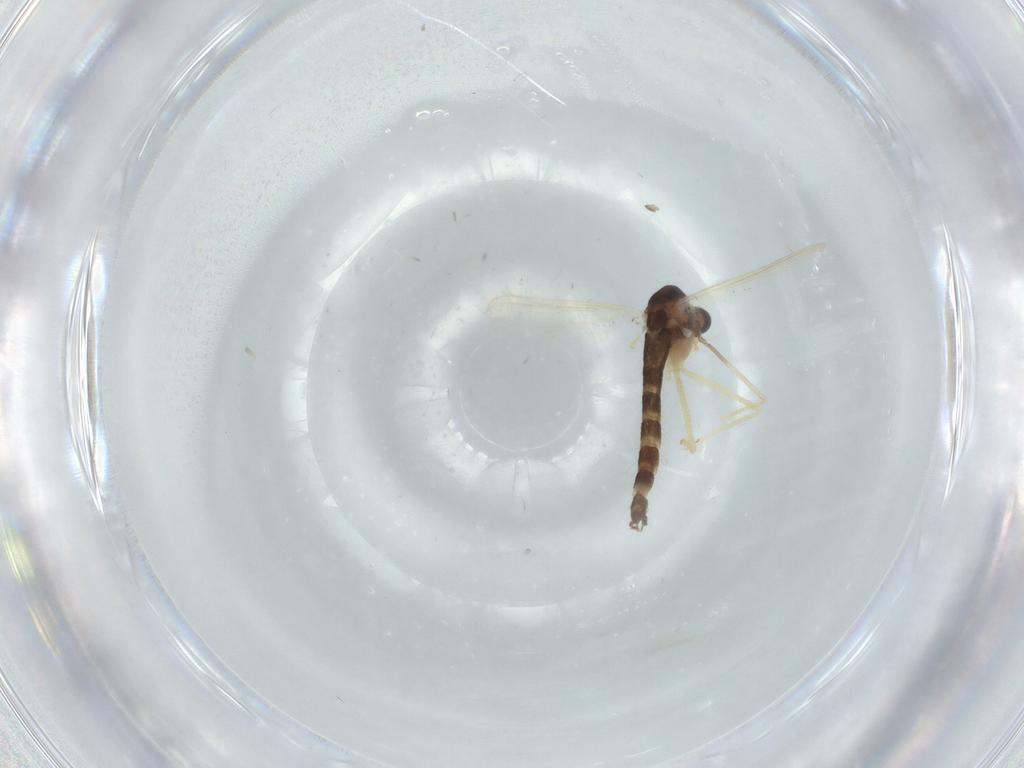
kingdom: Animalia
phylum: Arthropoda
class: Insecta
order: Diptera
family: Chironomidae
